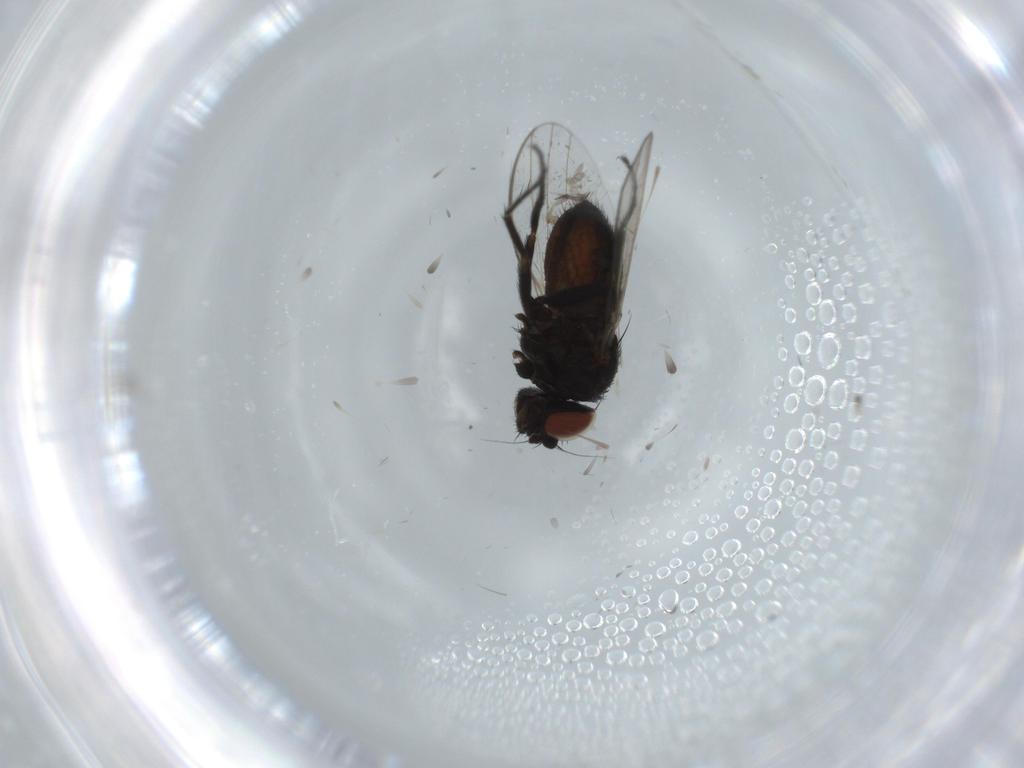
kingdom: Animalia
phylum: Arthropoda
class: Insecta
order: Diptera
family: Milichiidae
